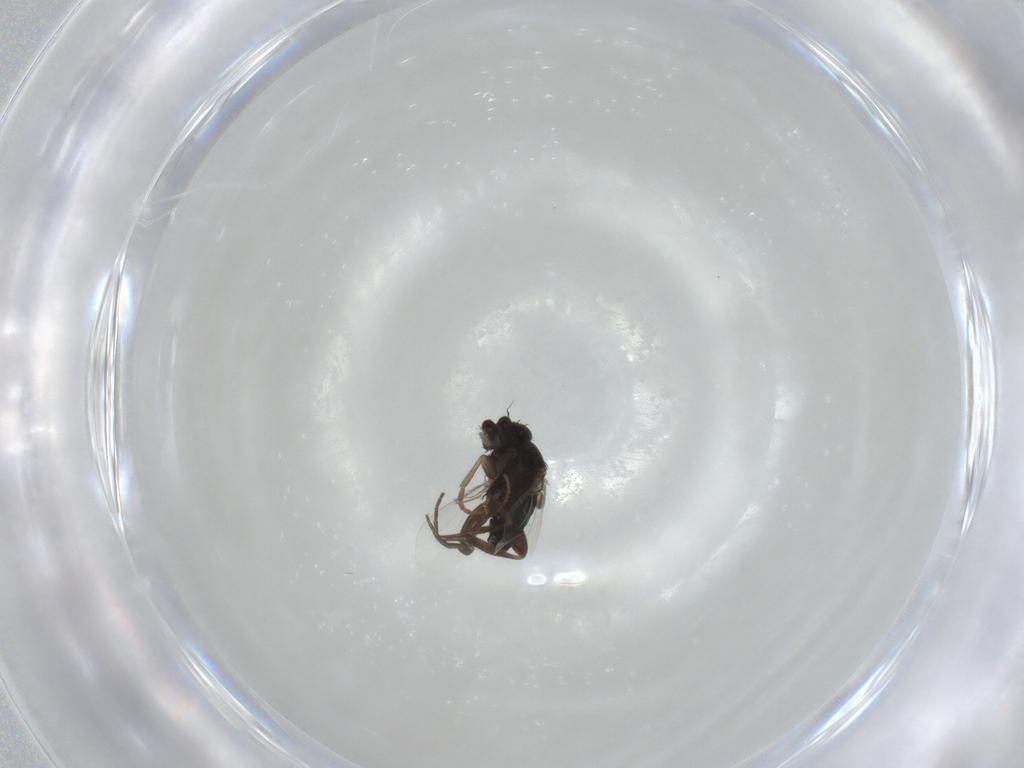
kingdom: Animalia
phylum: Arthropoda
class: Insecta
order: Diptera
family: Phoridae
